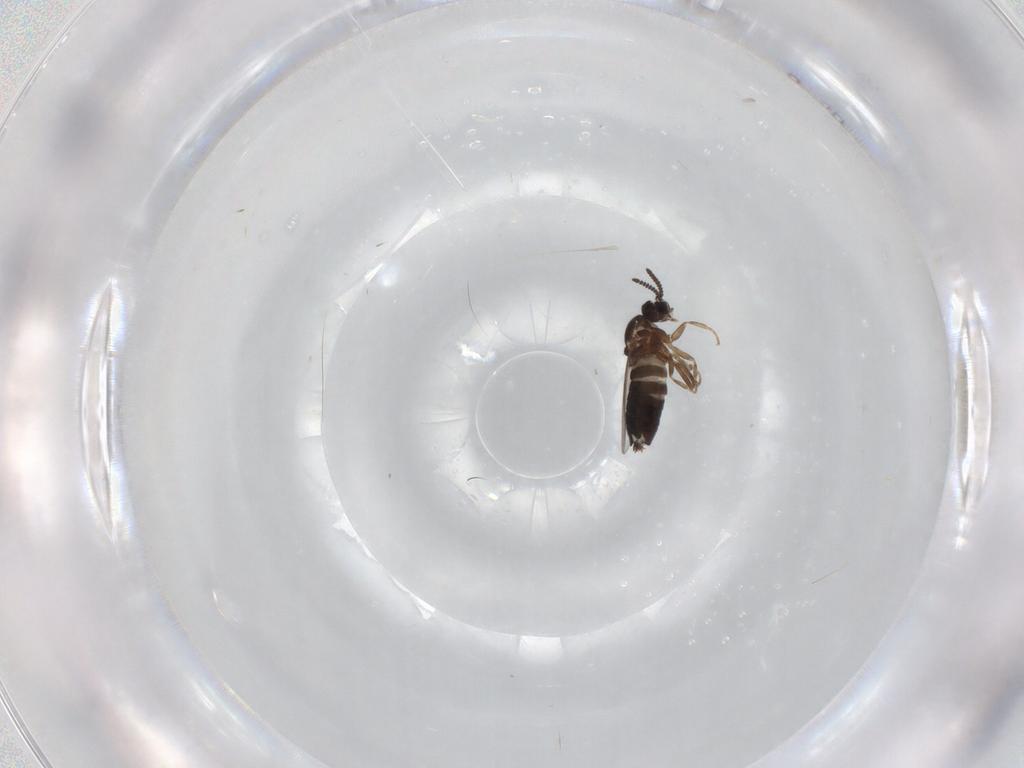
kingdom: Animalia
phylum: Arthropoda
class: Insecta
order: Diptera
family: Scatopsidae
